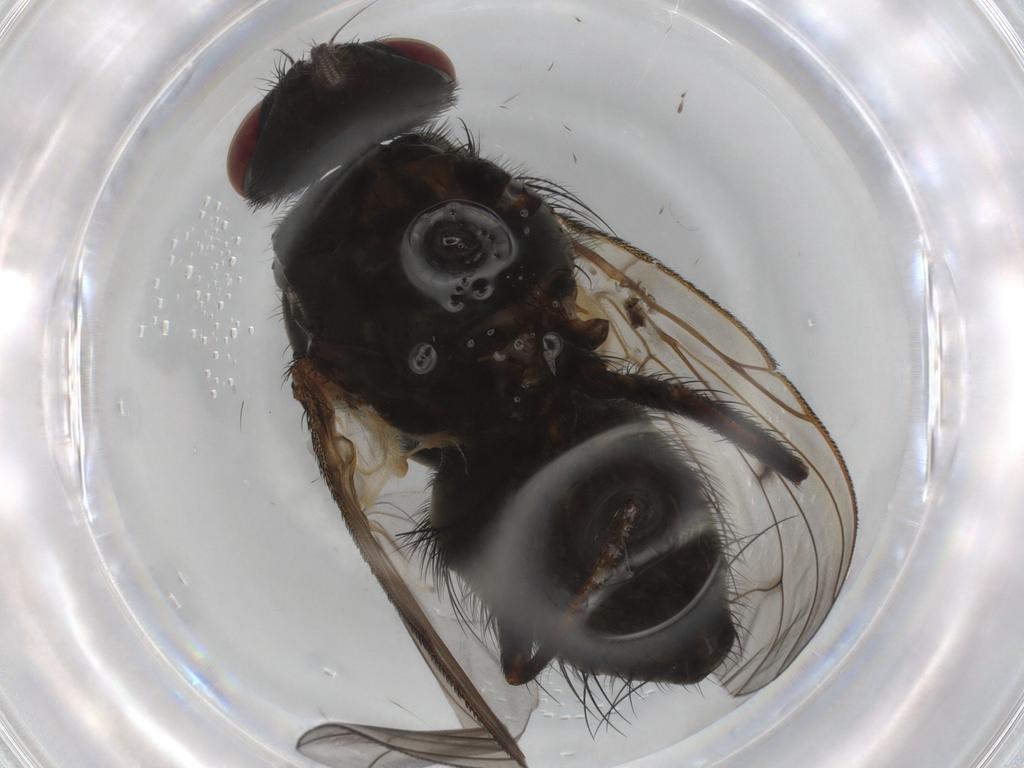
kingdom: Animalia
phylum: Arthropoda
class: Insecta
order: Diptera
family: Muscidae
